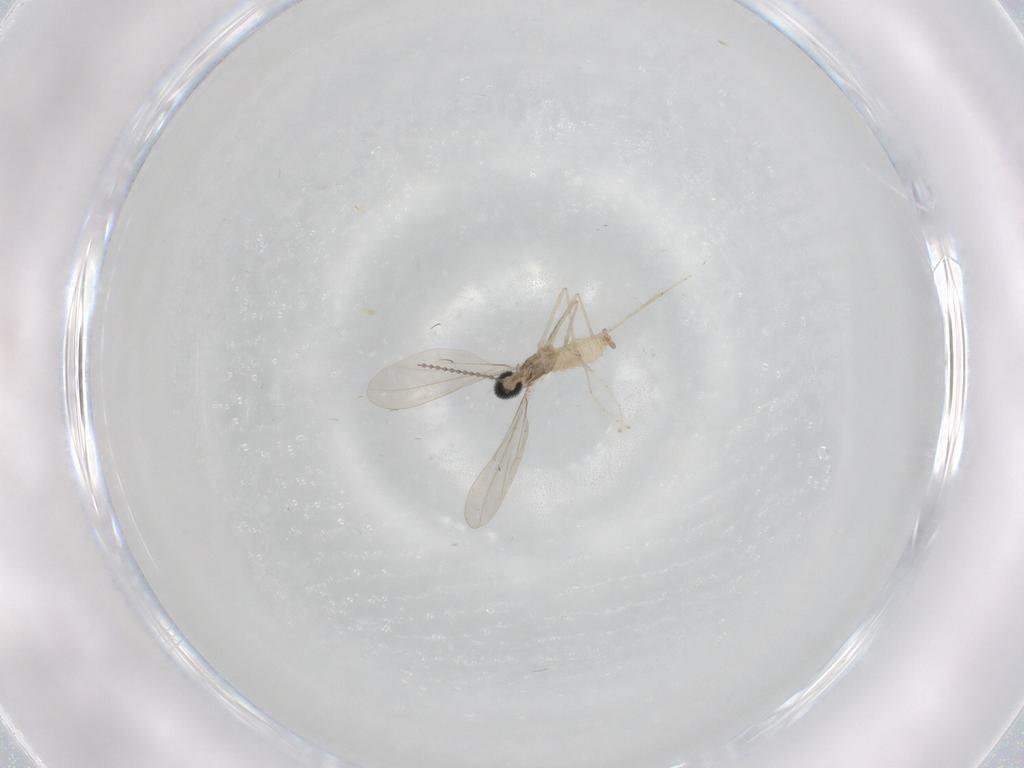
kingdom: Animalia
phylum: Arthropoda
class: Insecta
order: Diptera
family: Cecidomyiidae
